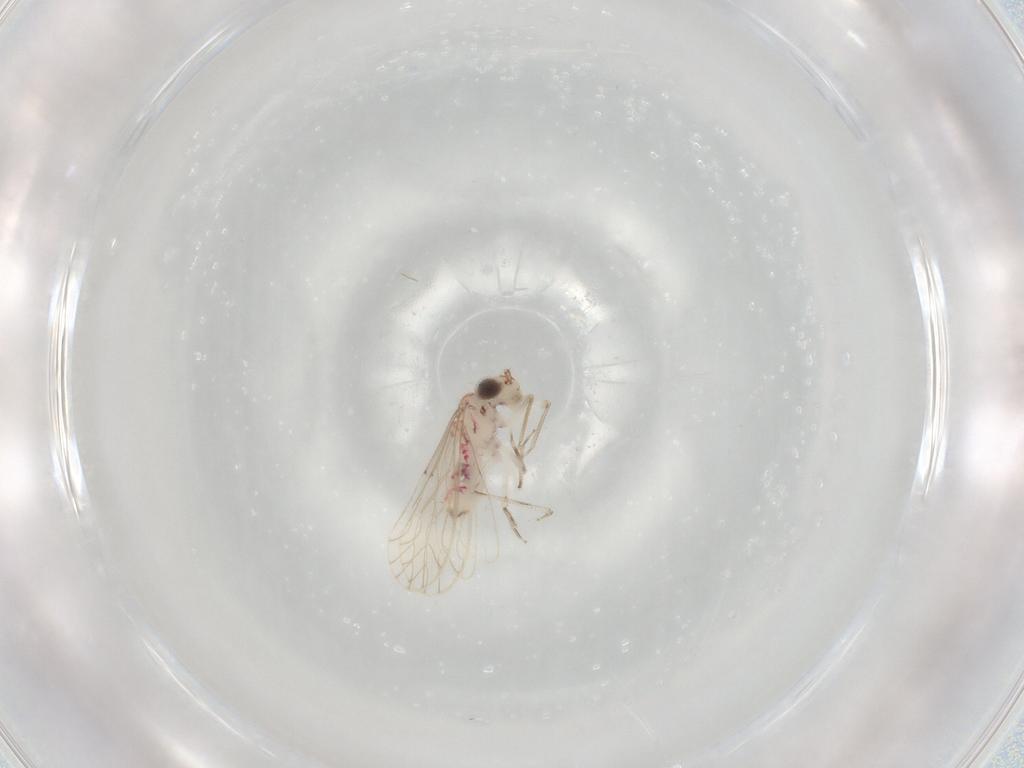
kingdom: Animalia
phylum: Arthropoda
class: Insecta
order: Psocodea
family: Caeciliusidae
